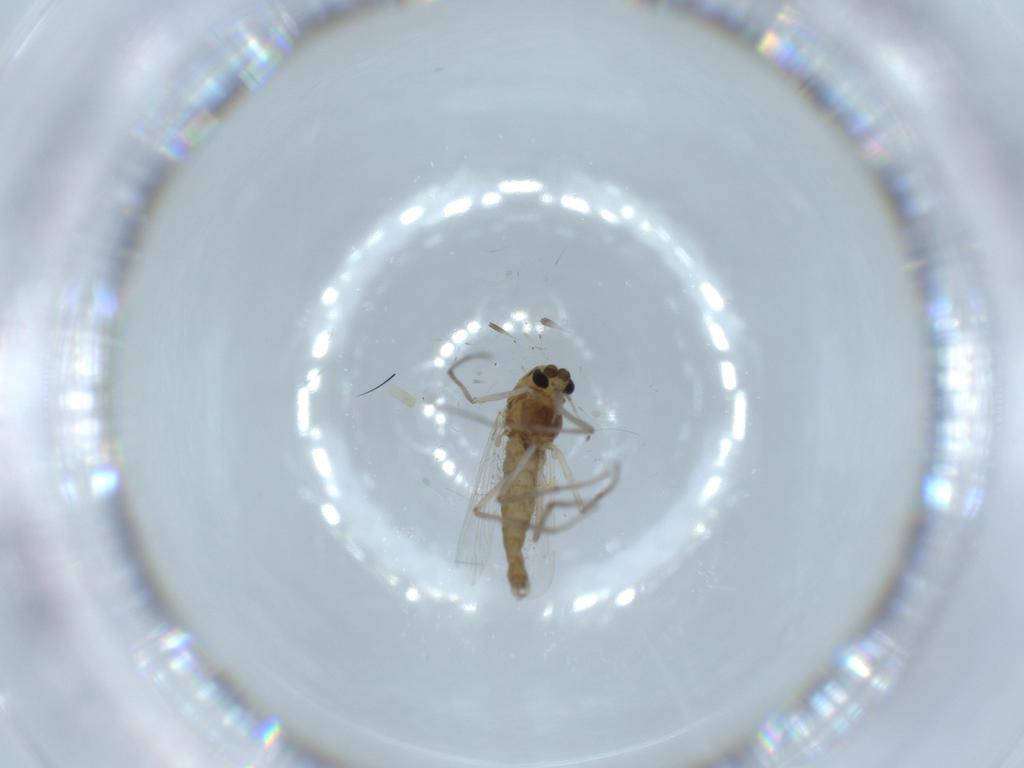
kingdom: Animalia
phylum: Arthropoda
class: Insecta
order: Diptera
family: Chironomidae
